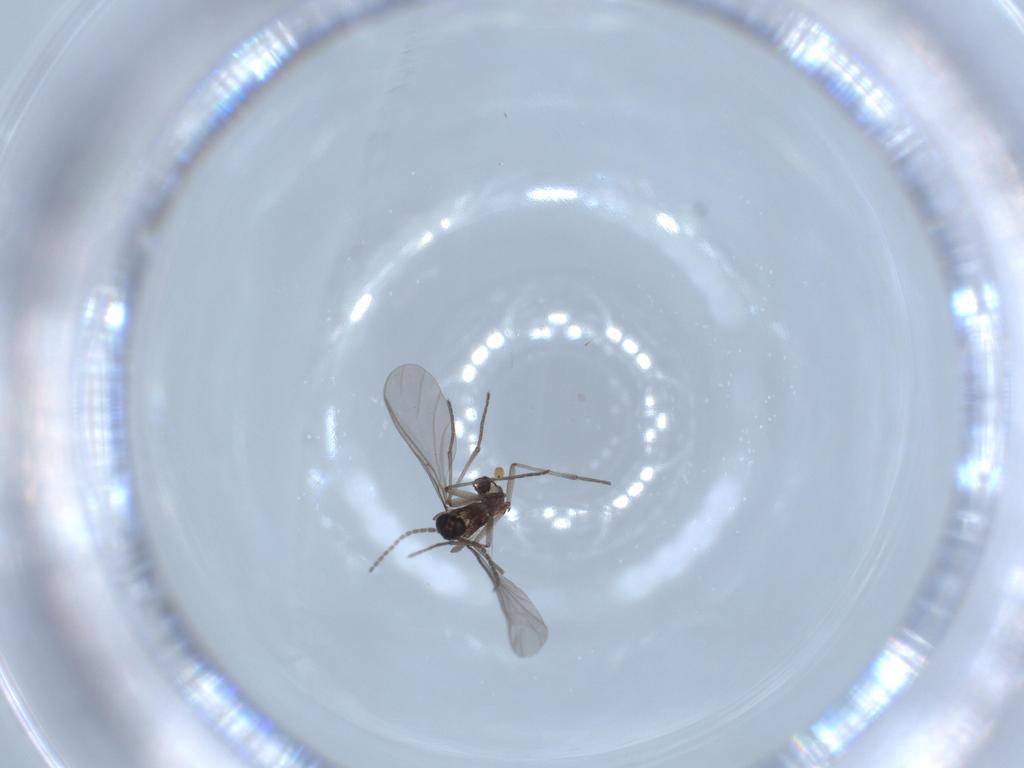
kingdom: Animalia
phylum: Arthropoda
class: Insecta
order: Diptera
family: Sciaridae
